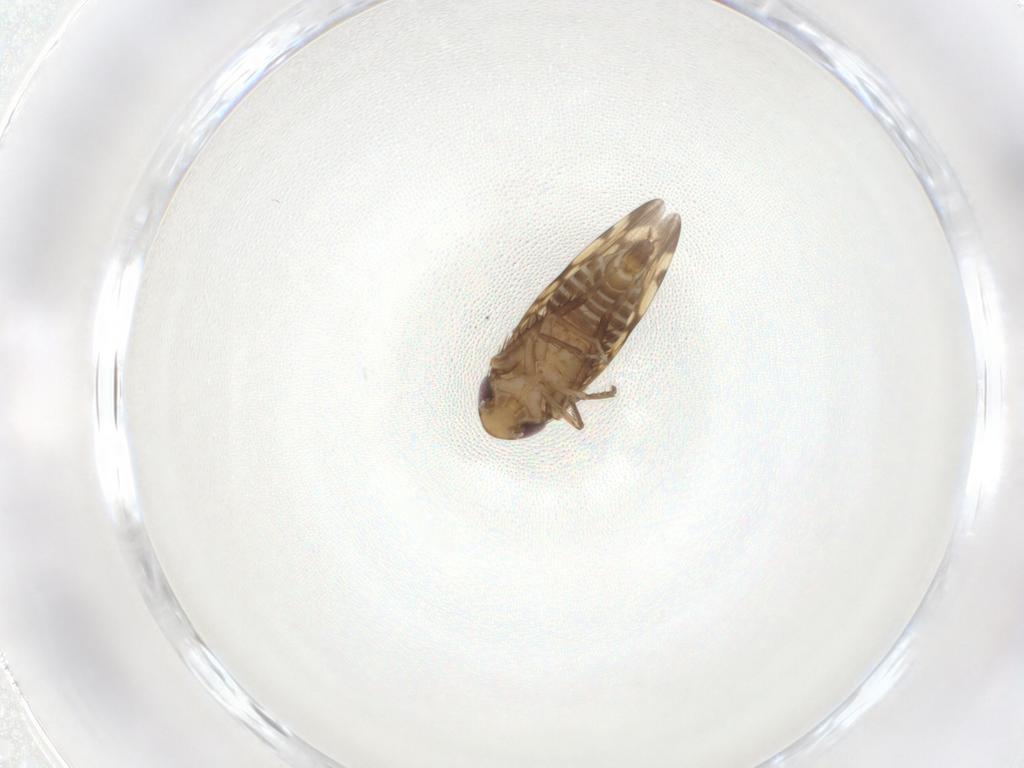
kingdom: Animalia
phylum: Arthropoda
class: Insecta
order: Hemiptera
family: Cicadellidae
